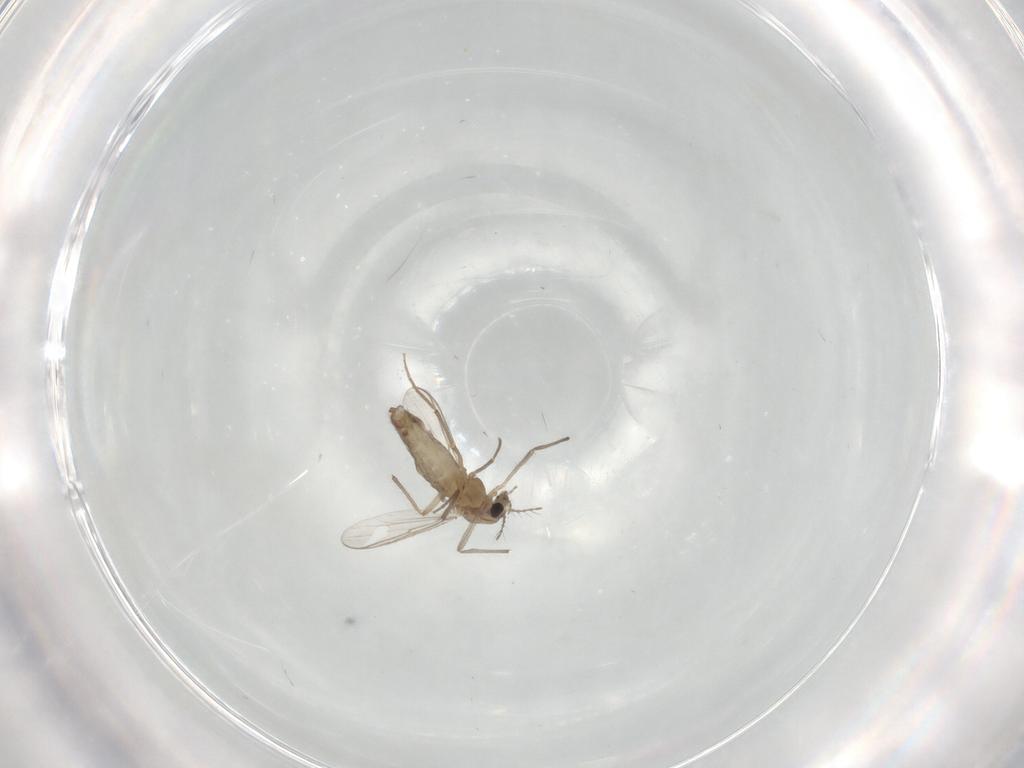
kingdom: Animalia
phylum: Arthropoda
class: Insecta
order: Diptera
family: Chironomidae
